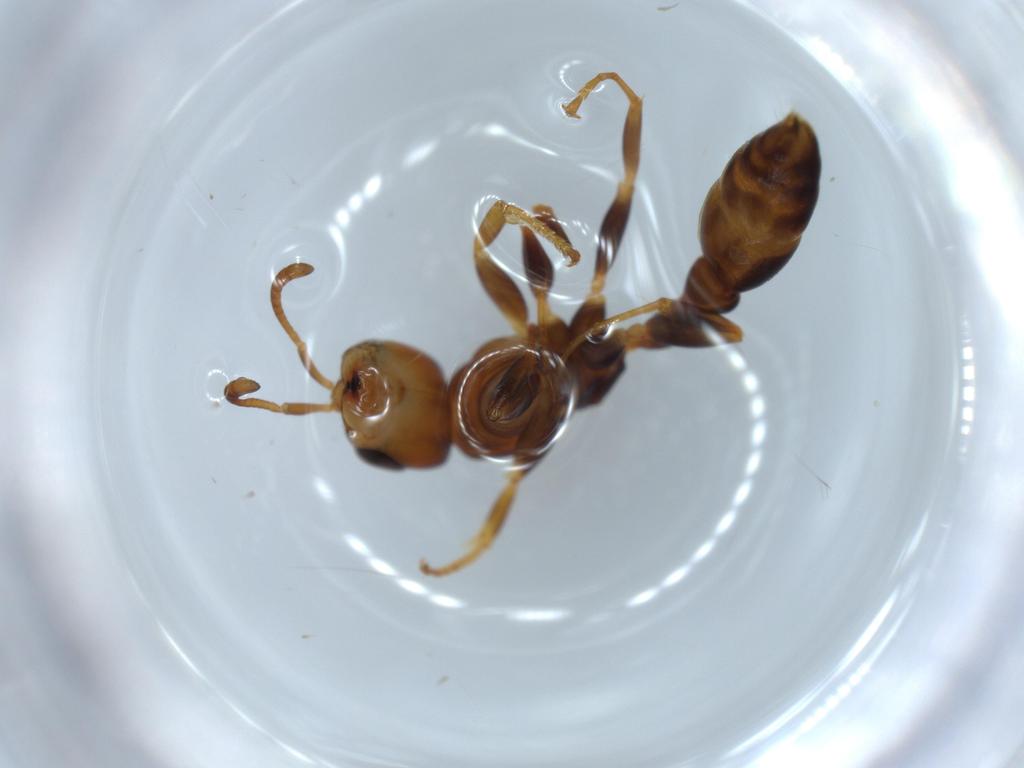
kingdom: Animalia
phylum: Arthropoda
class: Insecta
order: Hymenoptera
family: Formicidae
